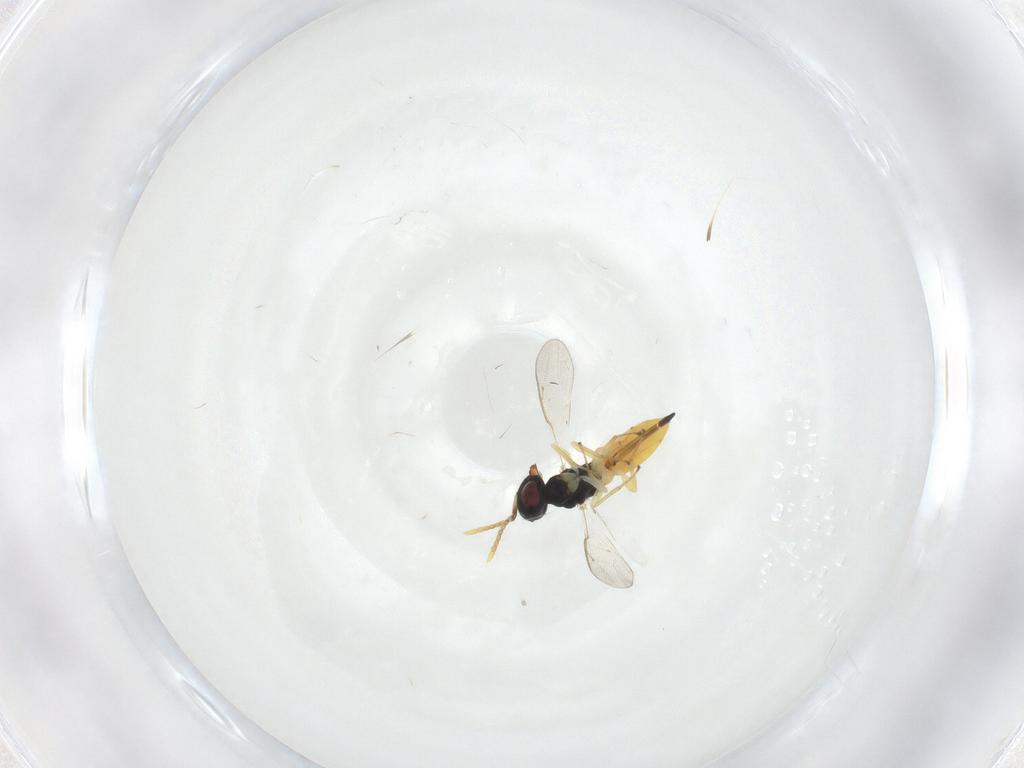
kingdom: Animalia
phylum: Arthropoda
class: Insecta
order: Hymenoptera
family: Pteromalidae
